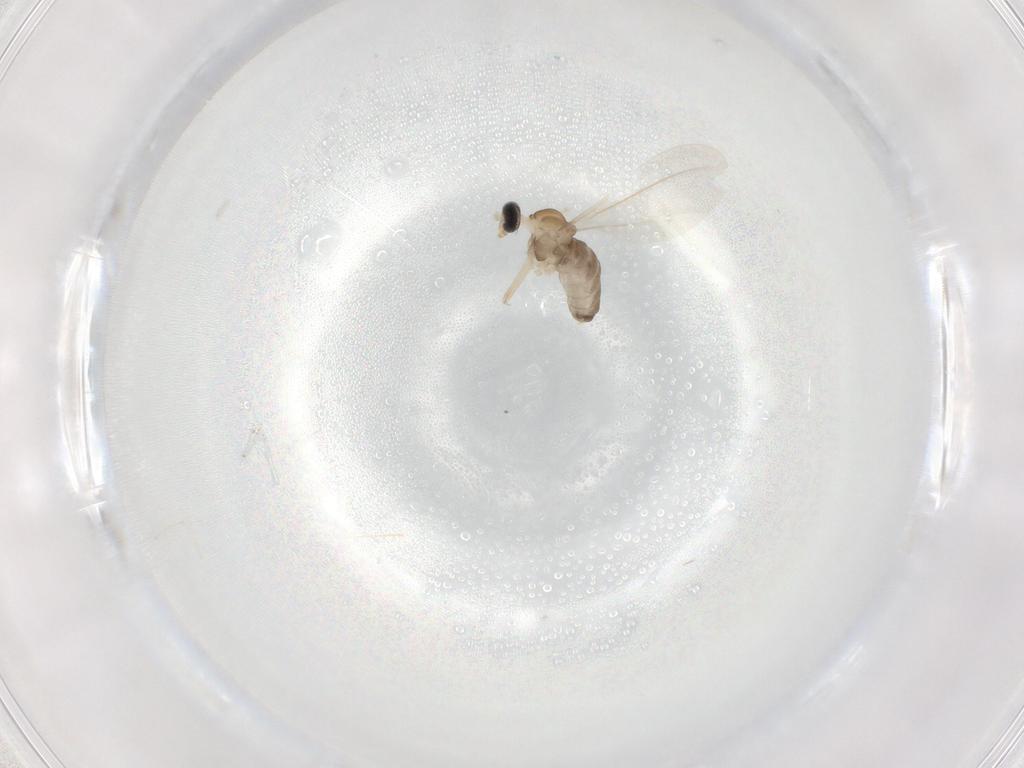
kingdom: Animalia
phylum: Arthropoda
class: Insecta
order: Diptera
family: Cecidomyiidae
